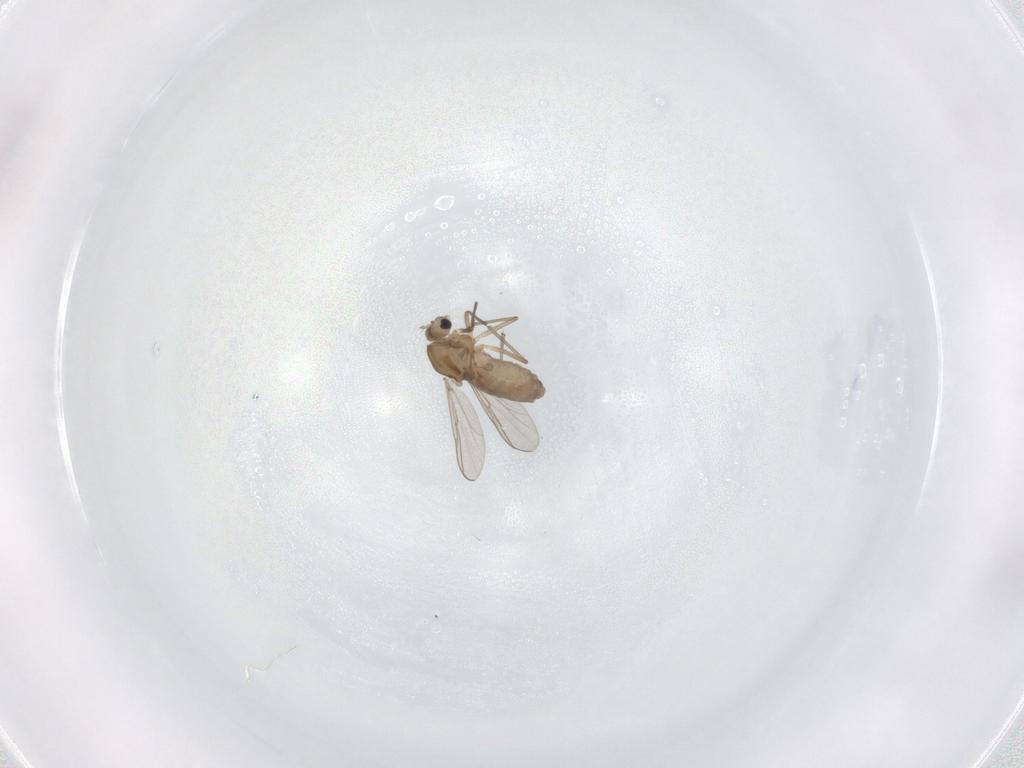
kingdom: Animalia
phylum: Arthropoda
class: Insecta
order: Diptera
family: Chironomidae
